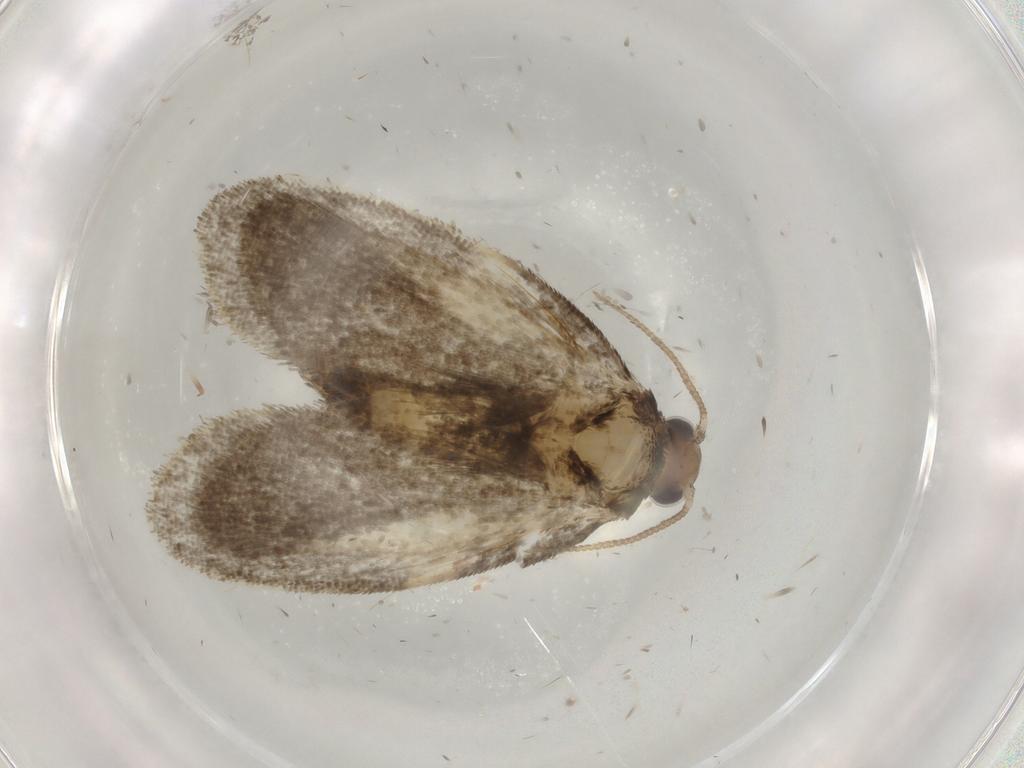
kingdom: Animalia
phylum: Arthropoda
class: Insecta
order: Lepidoptera
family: Psychidae
